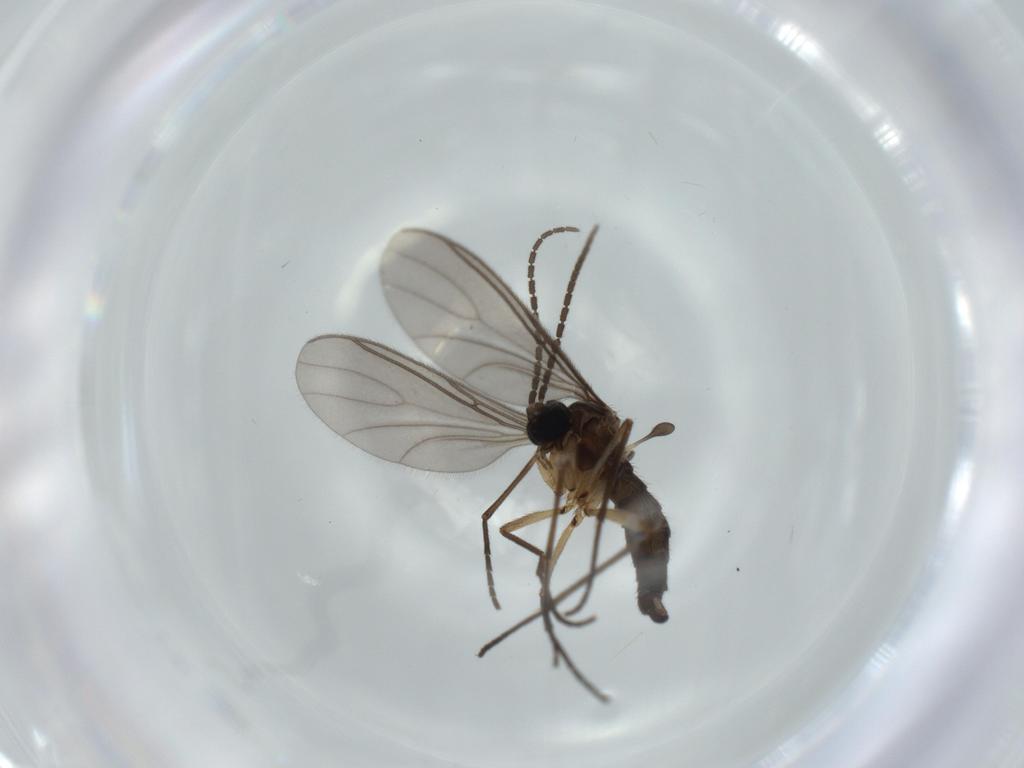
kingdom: Animalia
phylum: Arthropoda
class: Insecta
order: Diptera
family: Sciaridae
